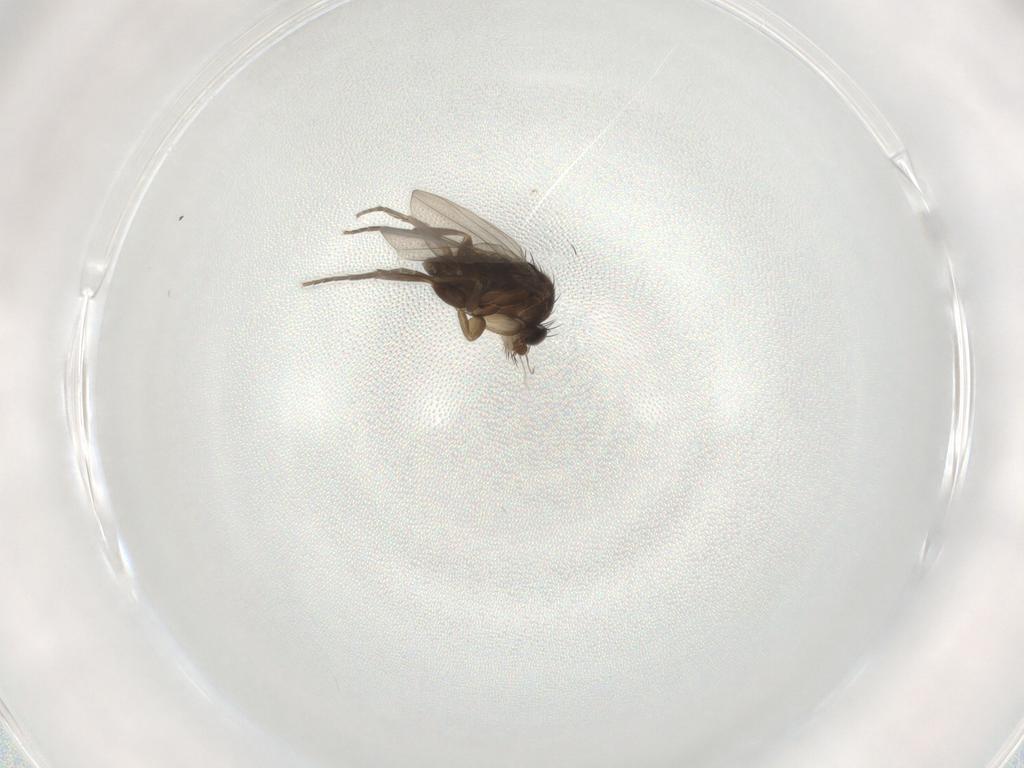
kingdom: Animalia
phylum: Arthropoda
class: Insecta
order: Diptera
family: Phoridae
